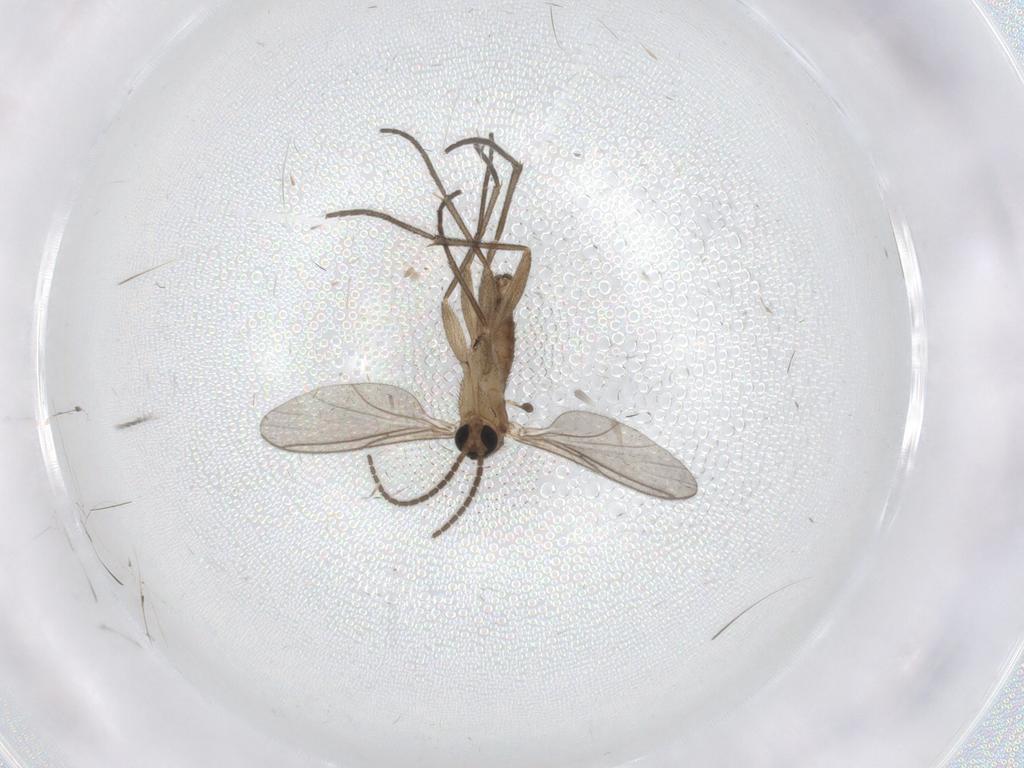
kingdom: Animalia
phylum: Arthropoda
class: Insecta
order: Diptera
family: Sciaridae
